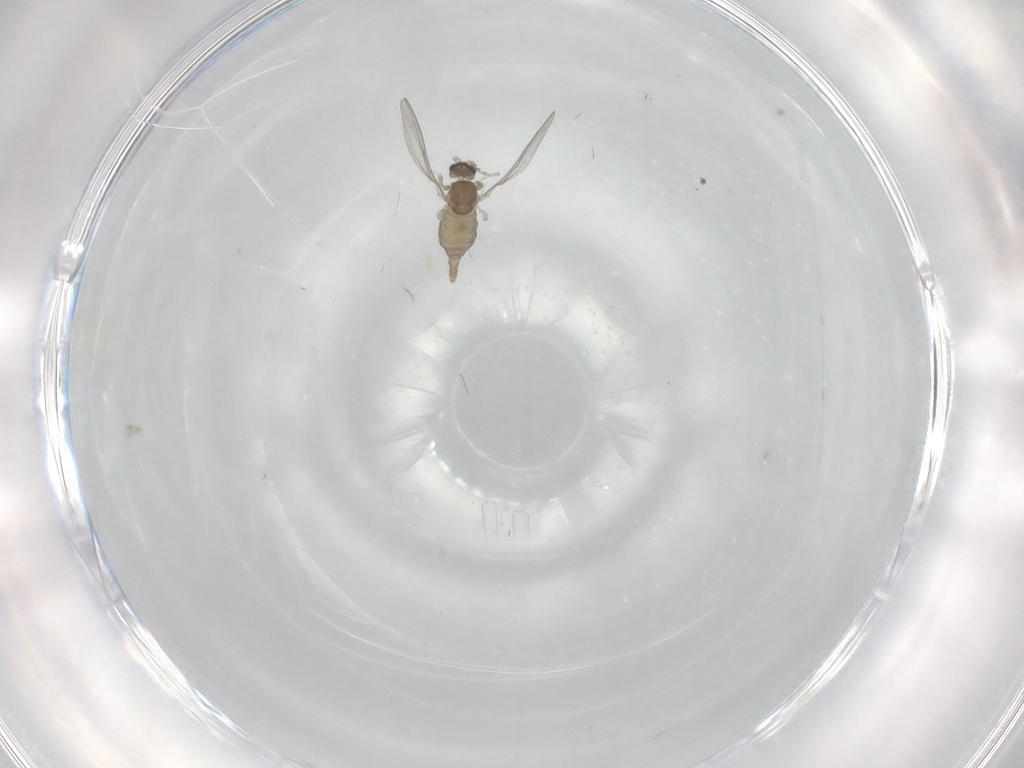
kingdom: Animalia
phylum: Arthropoda
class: Insecta
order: Diptera
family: Cecidomyiidae
